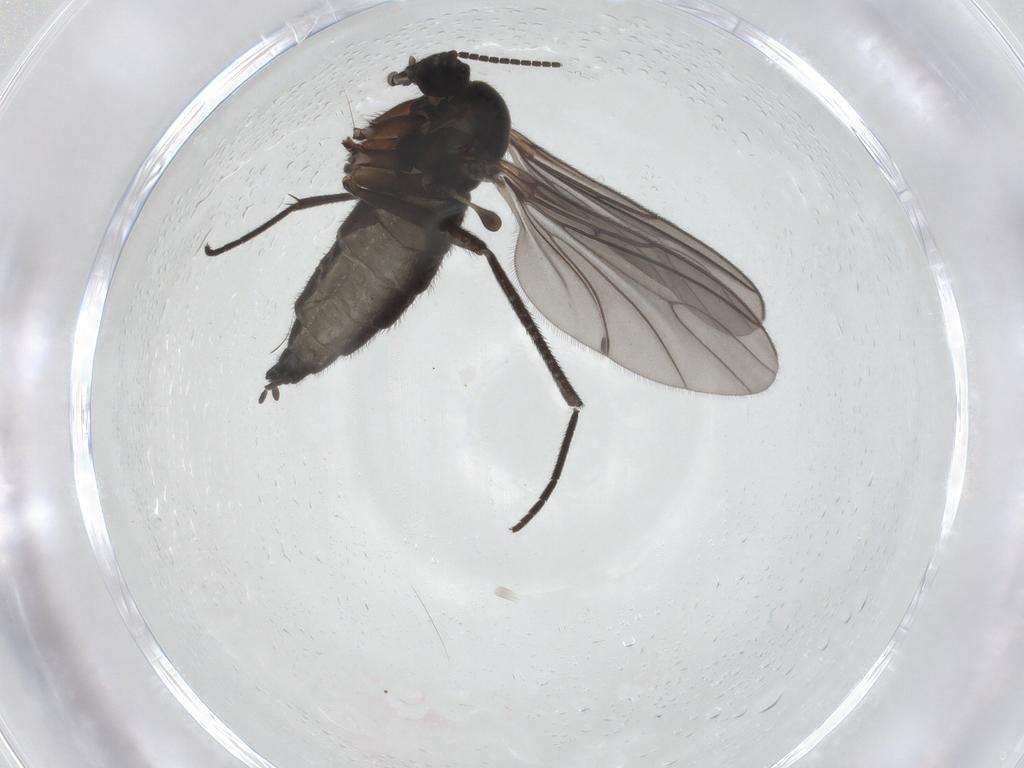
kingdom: Animalia
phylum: Arthropoda
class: Insecta
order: Diptera
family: Sciaridae
